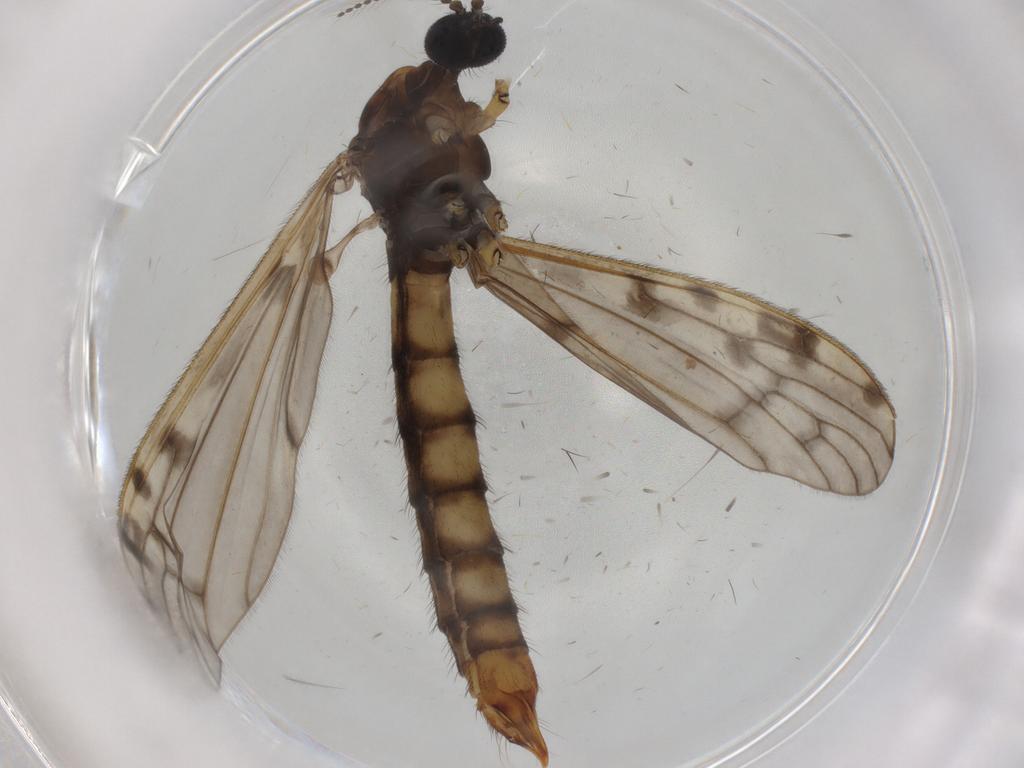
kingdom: Animalia
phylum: Arthropoda
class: Insecta
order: Diptera
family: Limoniidae
